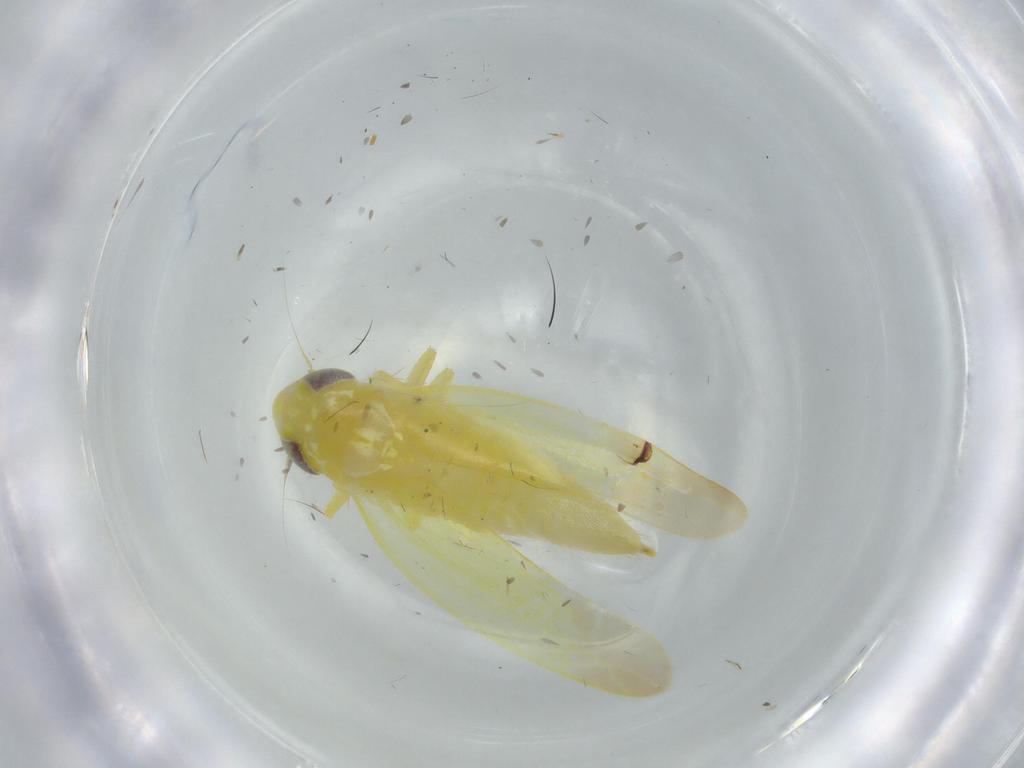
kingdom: Animalia
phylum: Arthropoda
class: Insecta
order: Hemiptera
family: Cicadellidae
